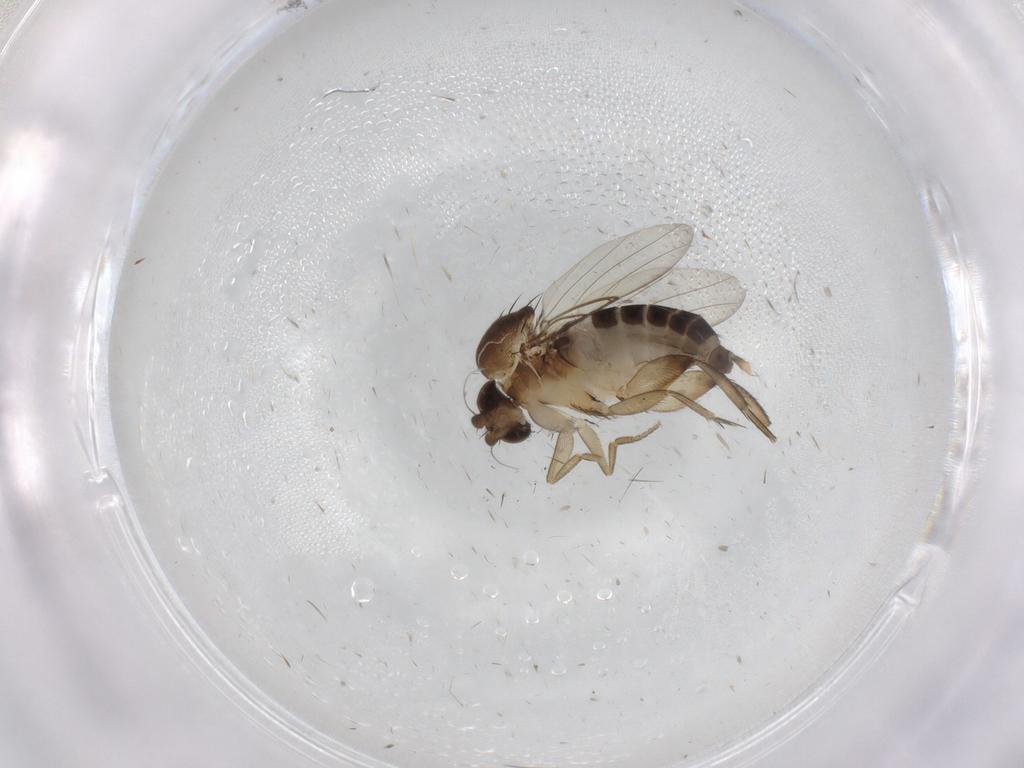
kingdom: Animalia
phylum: Arthropoda
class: Insecta
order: Diptera
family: Phoridae
